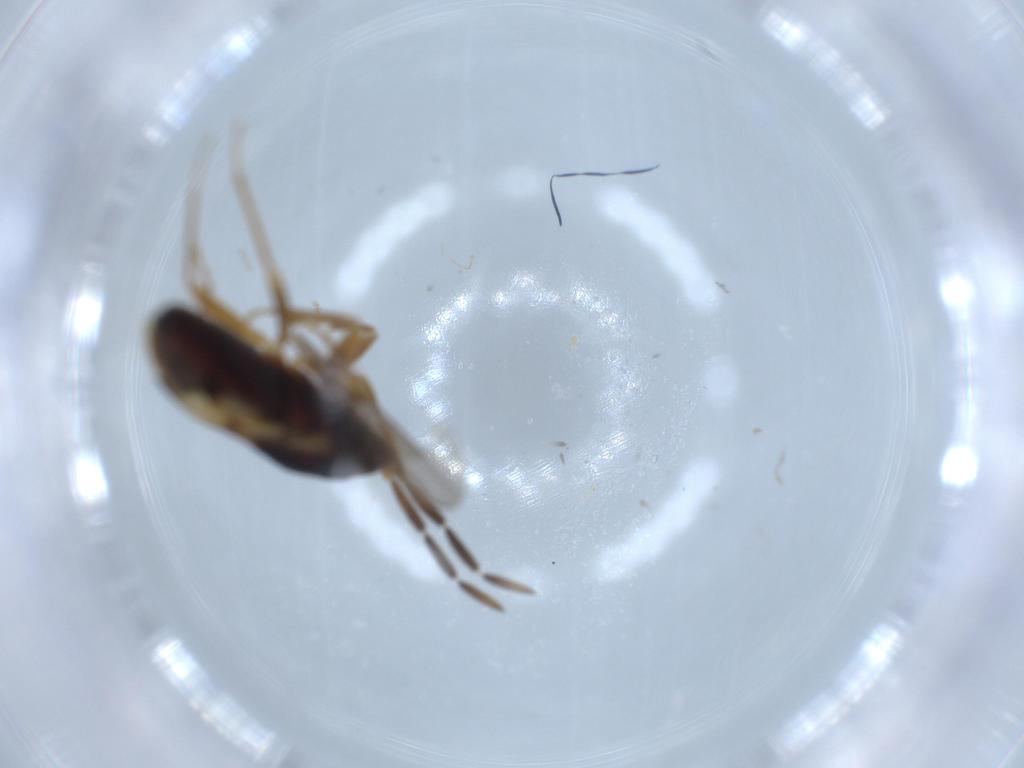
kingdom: Animalia
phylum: Arthropoda
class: Insecta
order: Hemiptera
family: Rhyparochromidae
